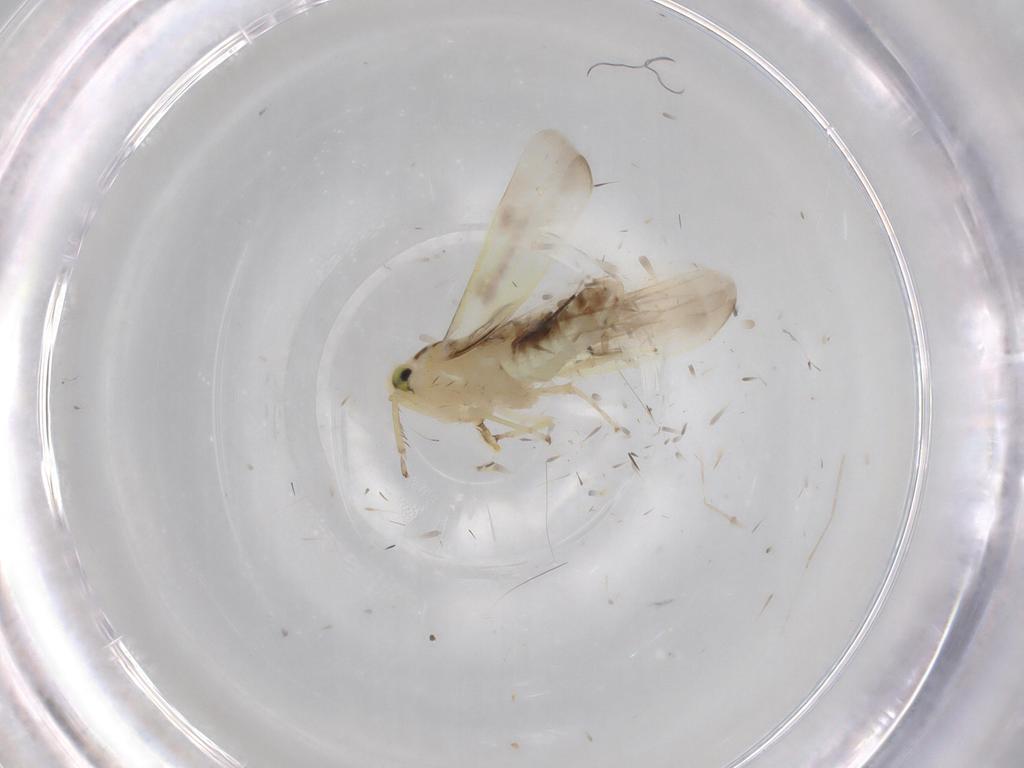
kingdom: Animalia
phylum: Arthropoda
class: Insecta
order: Hemiptera
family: Cicadellidae
